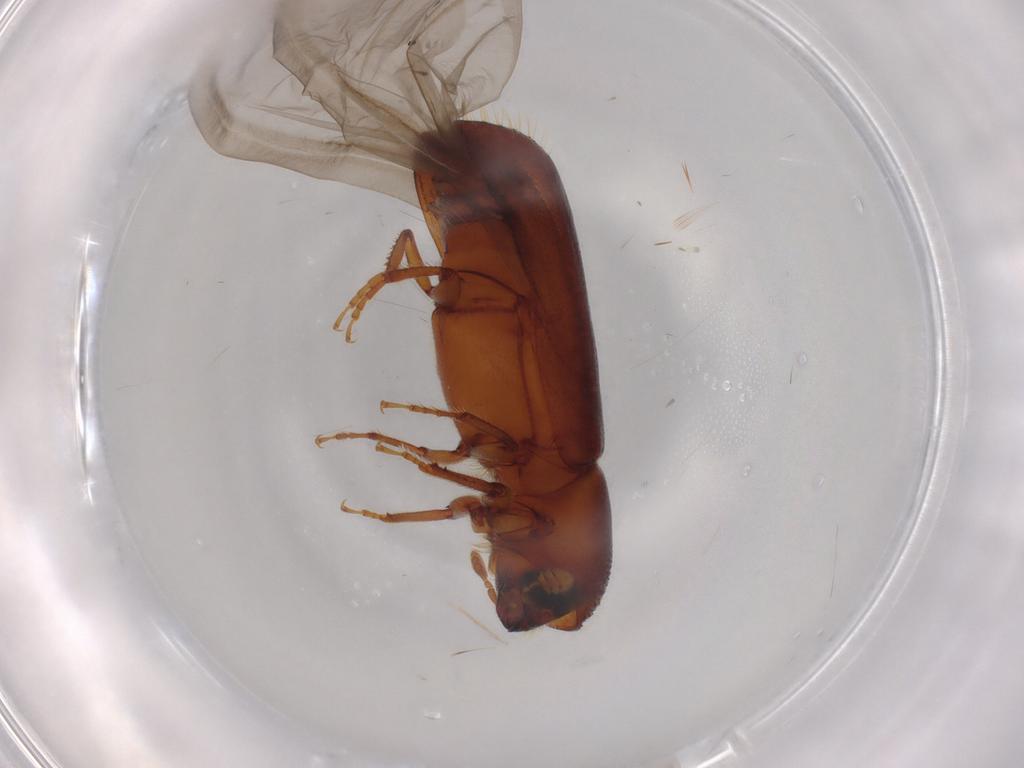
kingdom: Animalia
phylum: Arthropoda
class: Insecta
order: Coleoptera
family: Curculionidae
